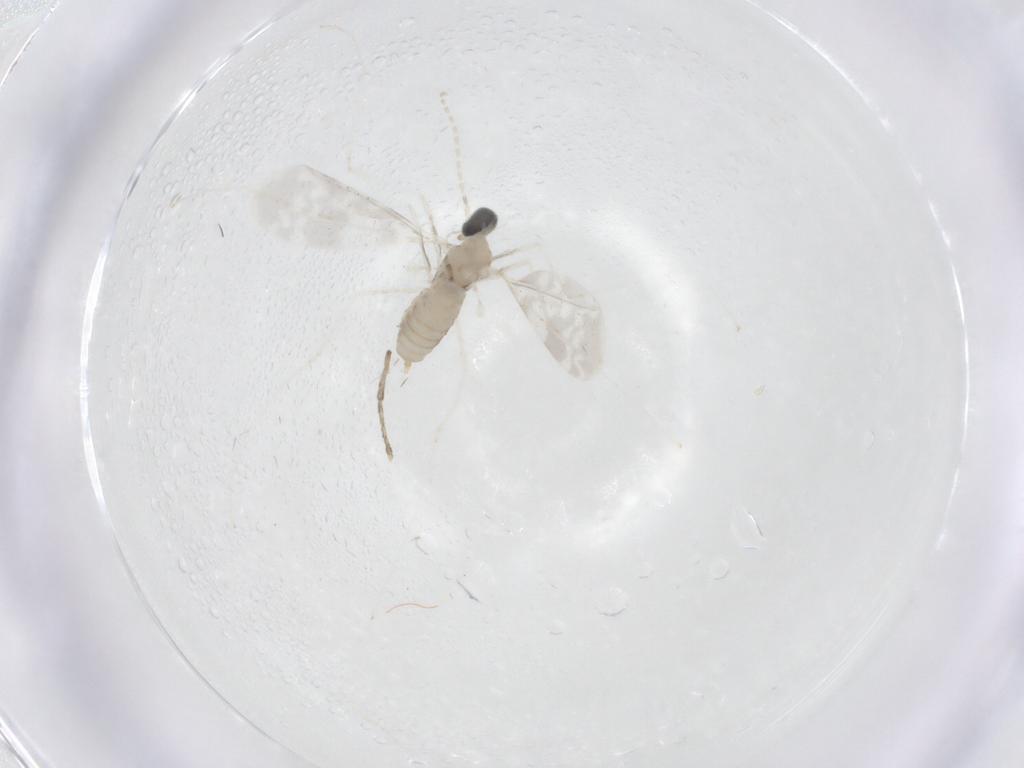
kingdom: Animalia
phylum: Arthropoda
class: Insecta
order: Diptera
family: Cecidomyiidae
